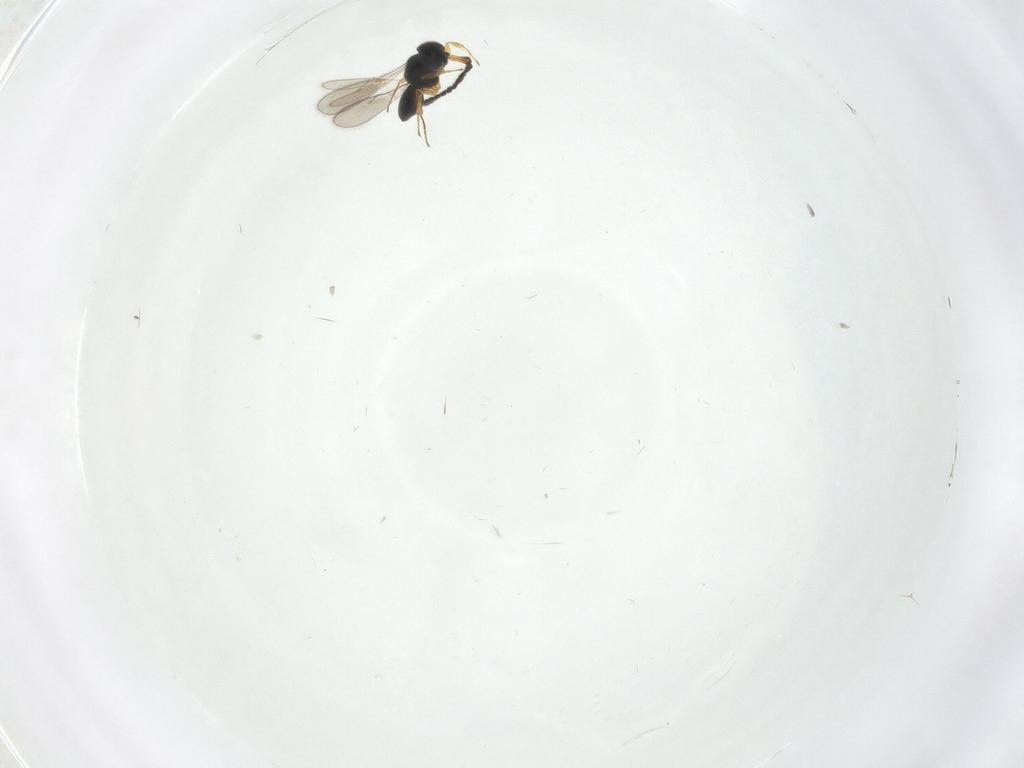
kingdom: Animalia
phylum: Arthropoda
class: Insecta
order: Hymenoptera
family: Scelionidae
